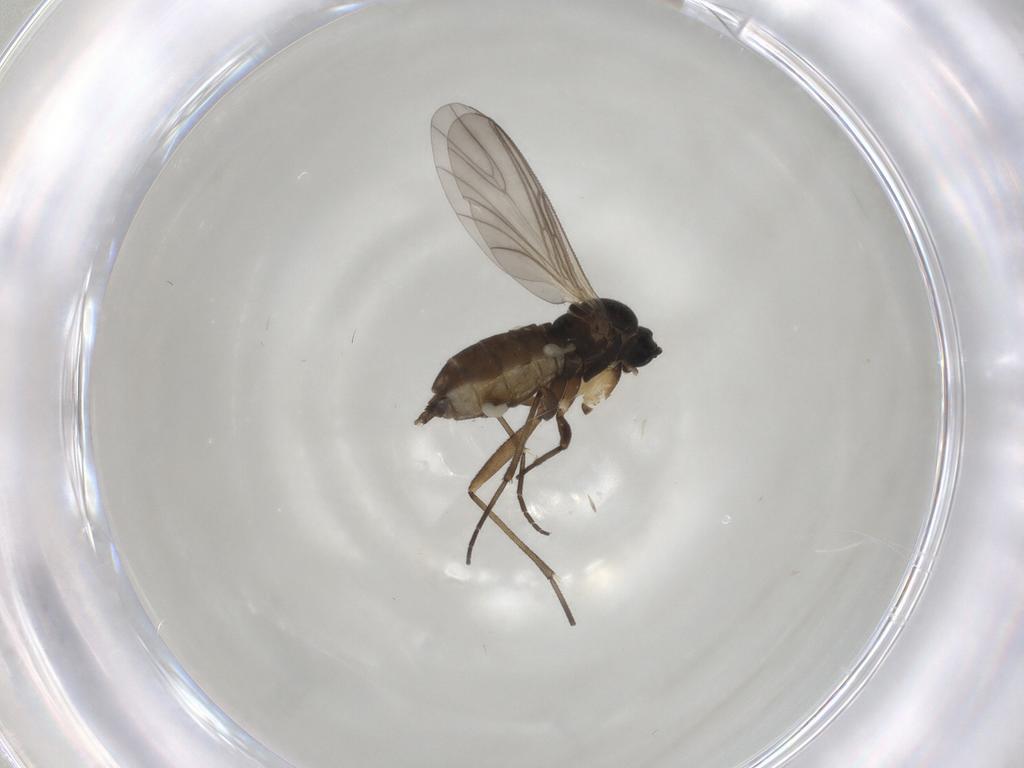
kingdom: Animalia
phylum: Arthropoda
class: Insecta
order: Diptera
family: Sciaridae
